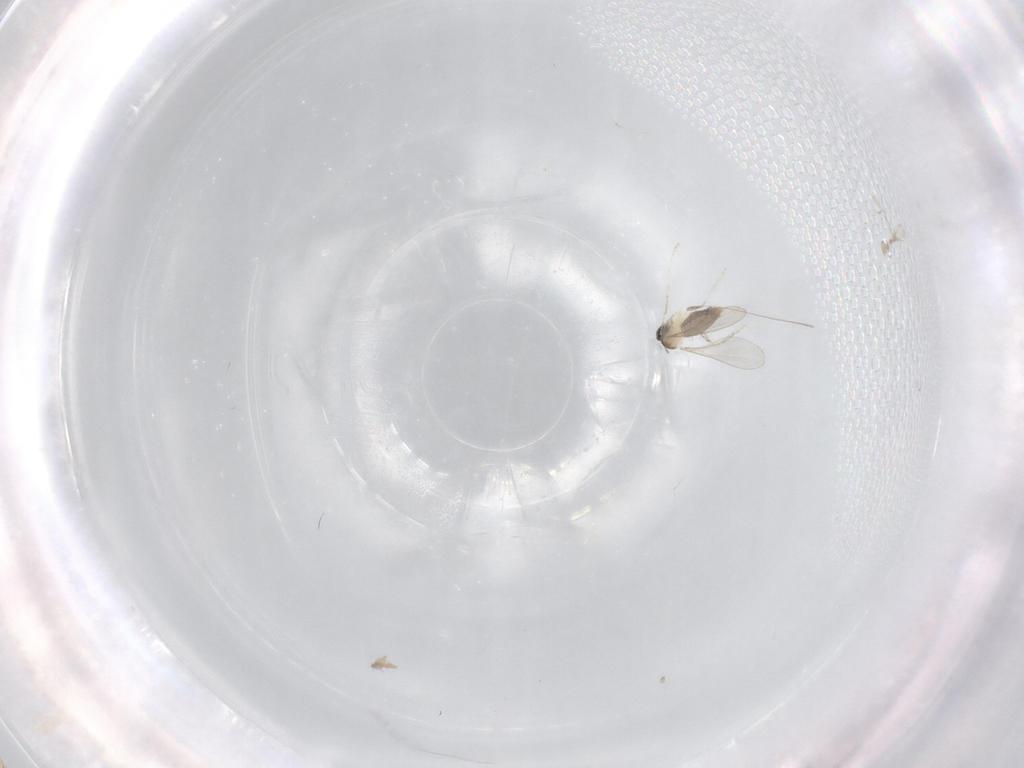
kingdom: Animalia
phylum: Arthropoda
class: Insecta
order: Diptera
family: Cecidomyiidae
